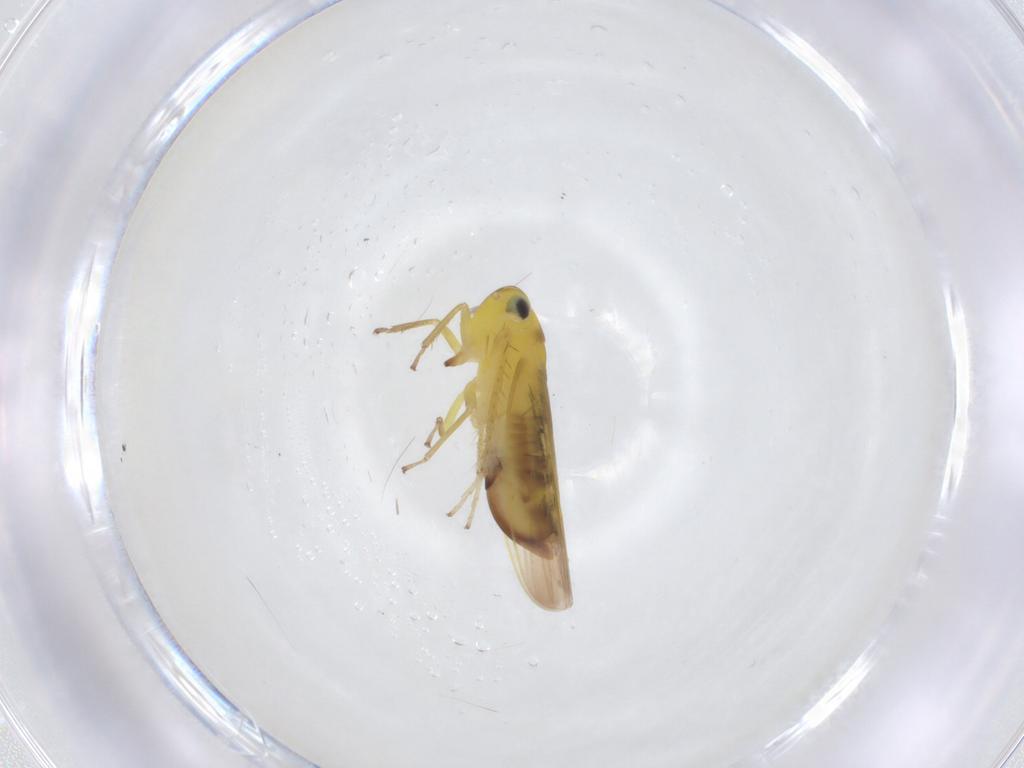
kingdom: Animalia
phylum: Arthropoda
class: Insecta
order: Hemiptera
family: Cicadellidae
